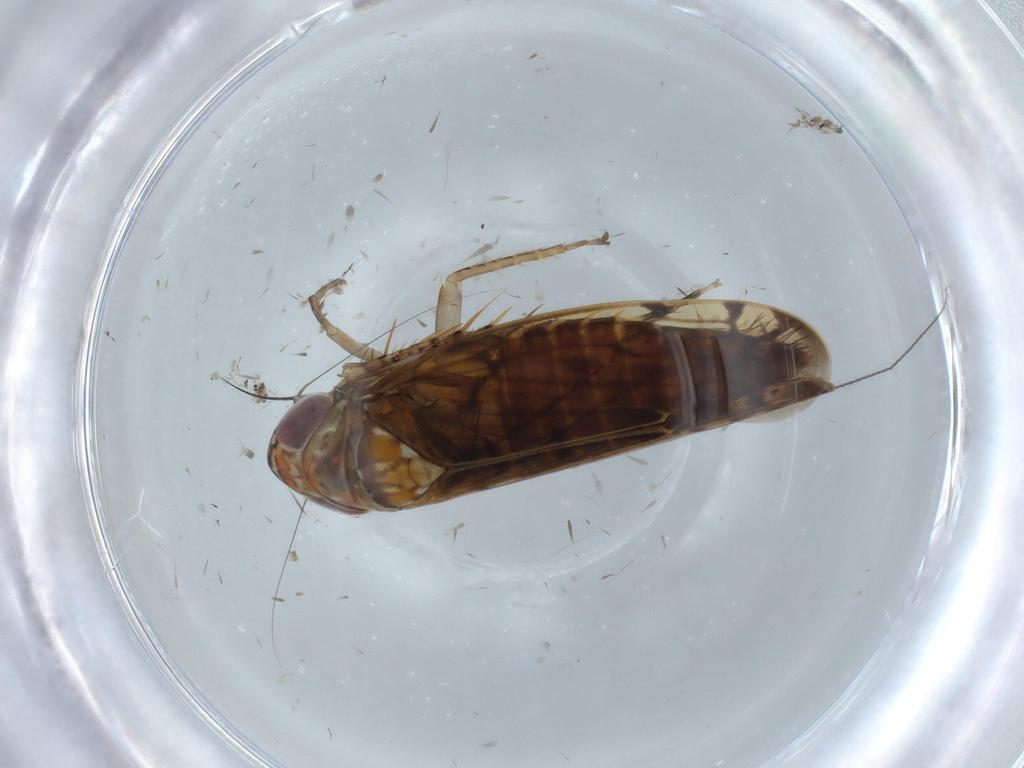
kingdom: Animalia
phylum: Arthropoda
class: Insecta
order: Hemiptera
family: Cicadellidae
